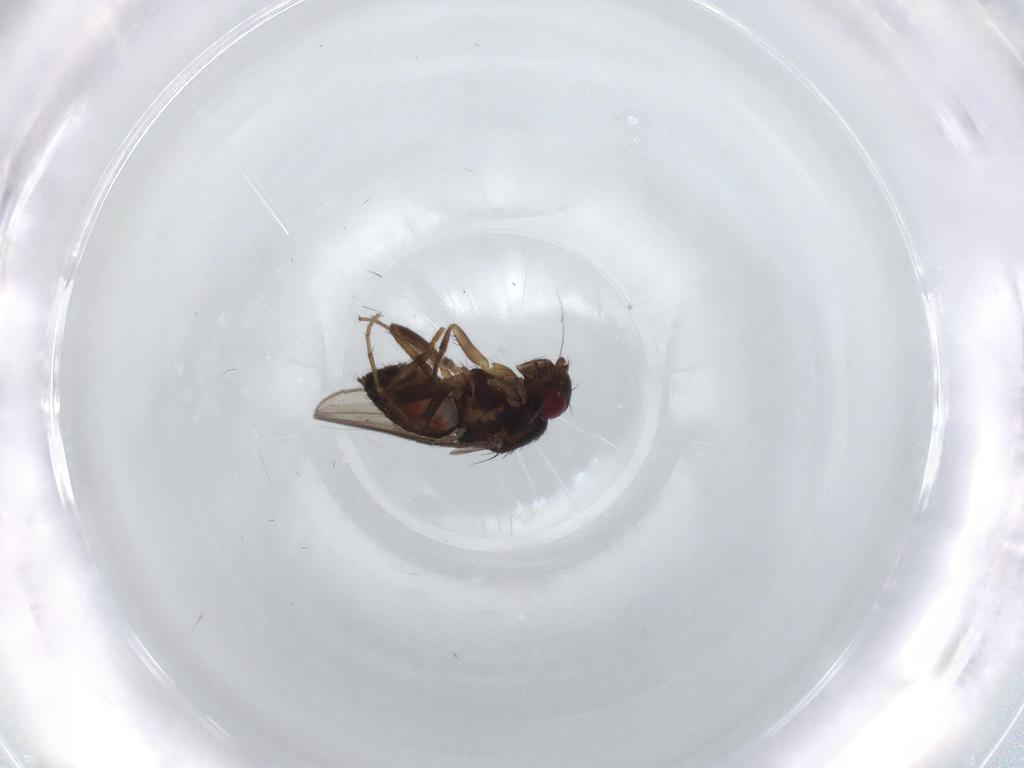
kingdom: Animalia
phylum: Arthropoda
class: Insecta
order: Diptera
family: Sphaeroceridae
